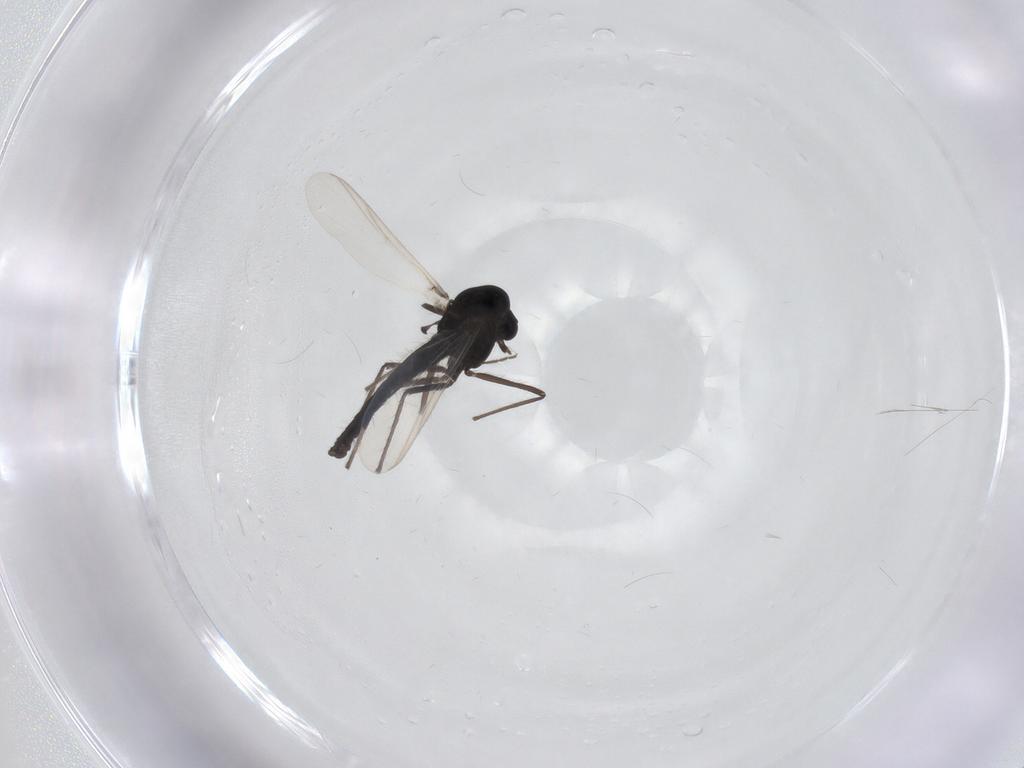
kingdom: Animalia
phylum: Arthropoda
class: Insecta
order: Diptera
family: Chironomidae
